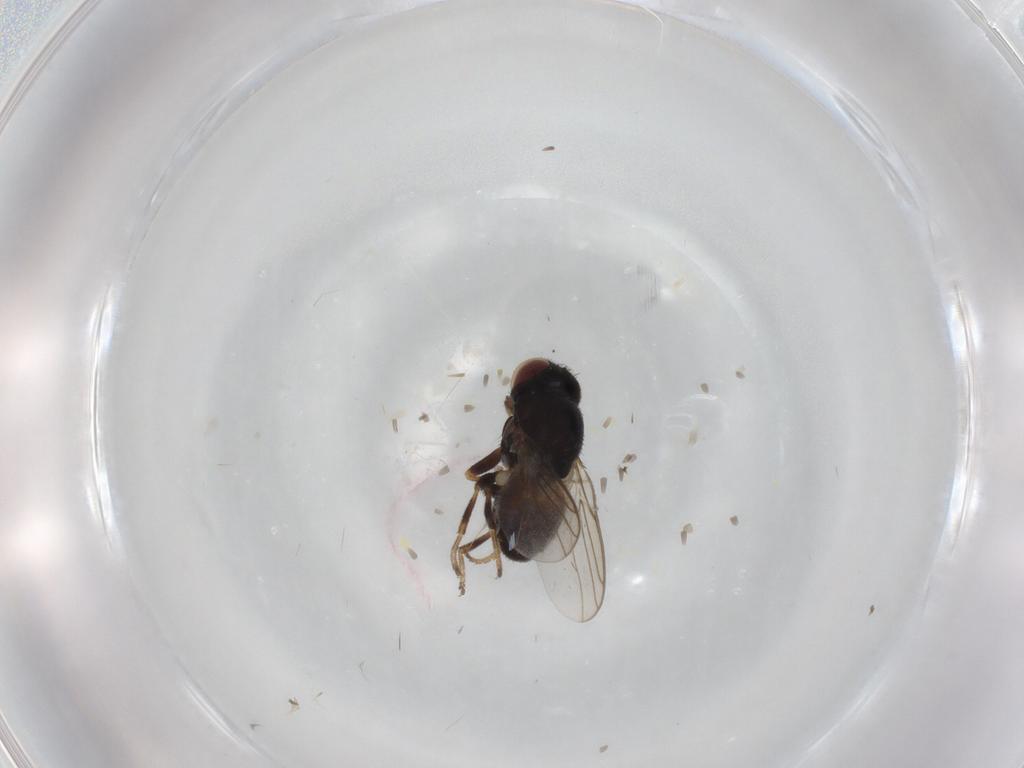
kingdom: Animalia
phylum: Arthropoda
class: Insecta
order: Diptera
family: Chloropidae
